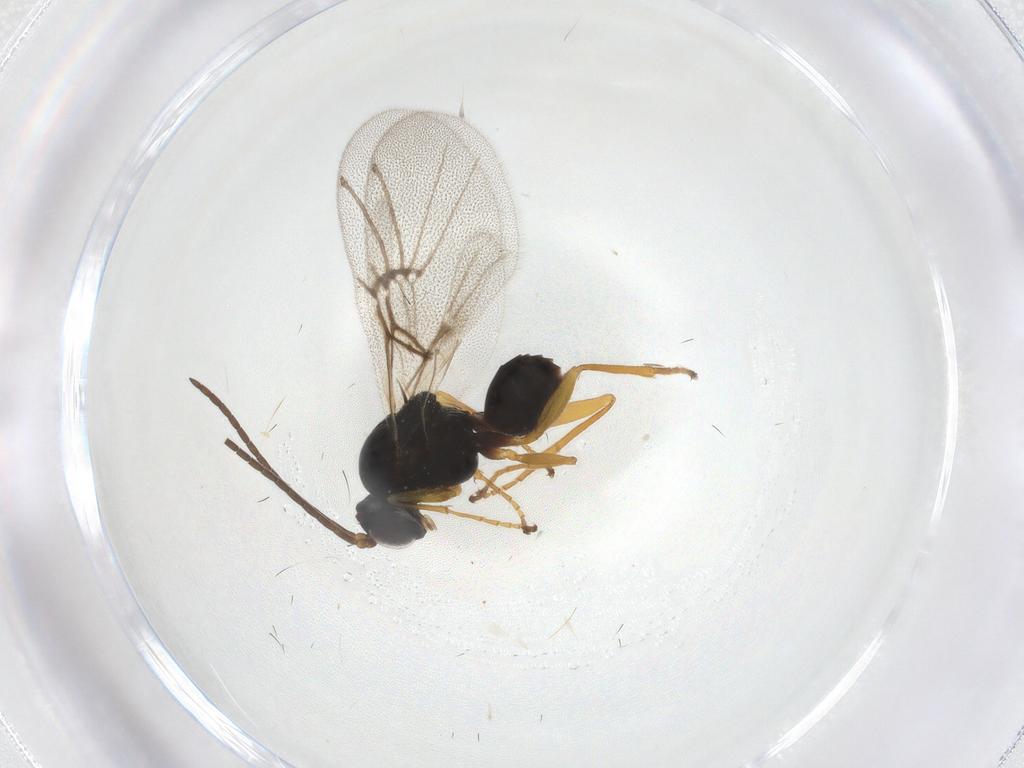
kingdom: Animalia
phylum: Arthropoda
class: Insecta
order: Hymenoptera
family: Cynipidae
